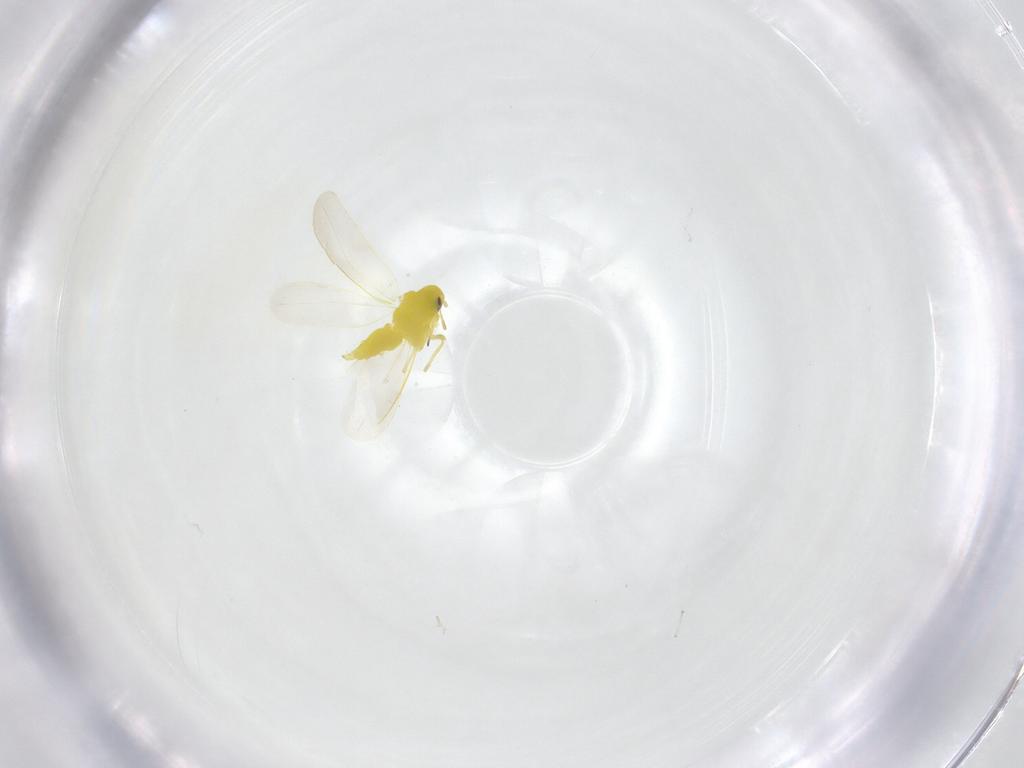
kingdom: Animalia
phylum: Arthropoda
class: Insecta
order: Hemiptera
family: Aleyrodidae
